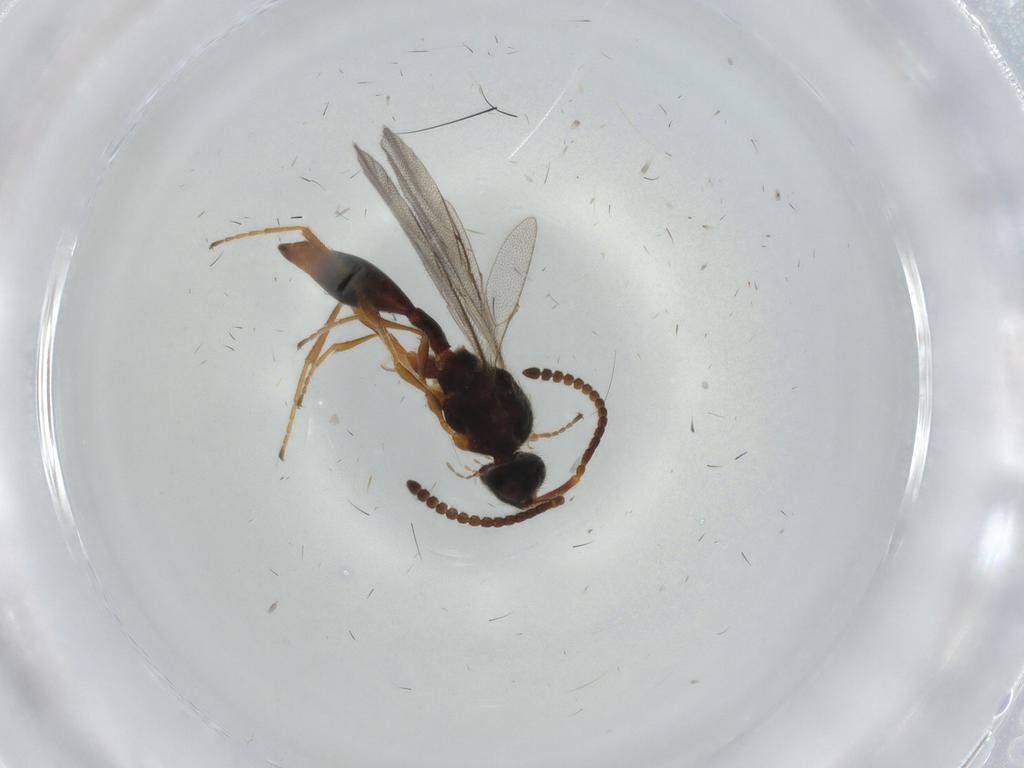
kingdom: Animalia
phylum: Arthropoda
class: Insecta
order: Hymenoptera
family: Diapriidae
